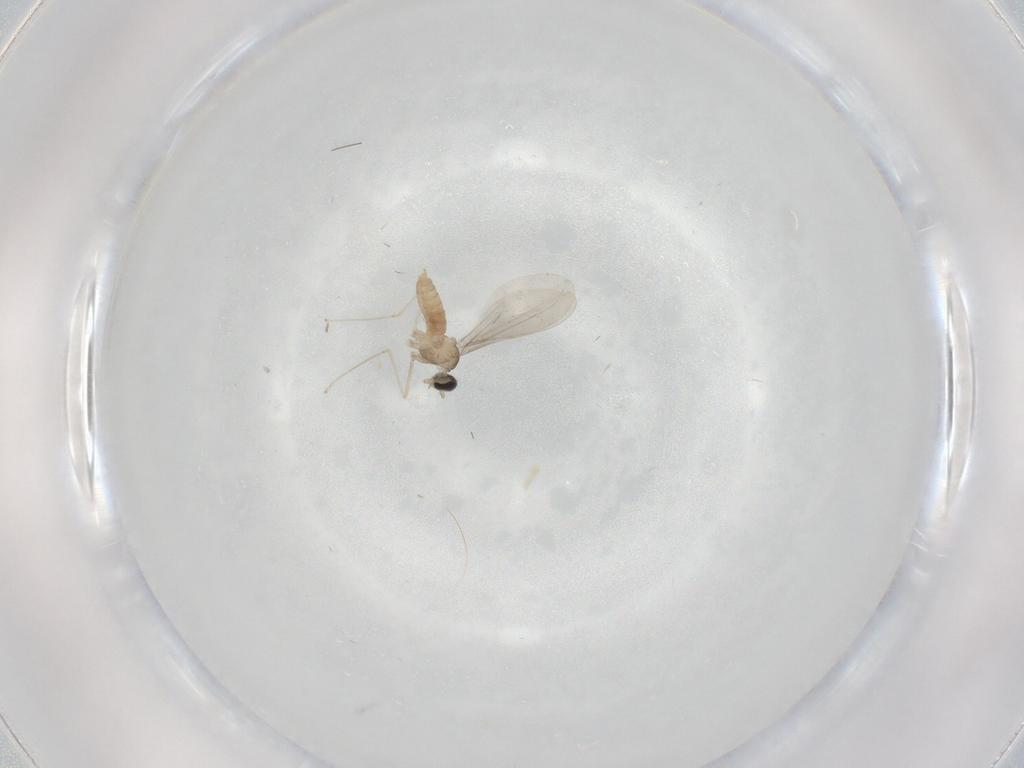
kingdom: Animalia
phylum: Arthropoda
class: Insecta
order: Diptera
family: Cecidomyiidae
